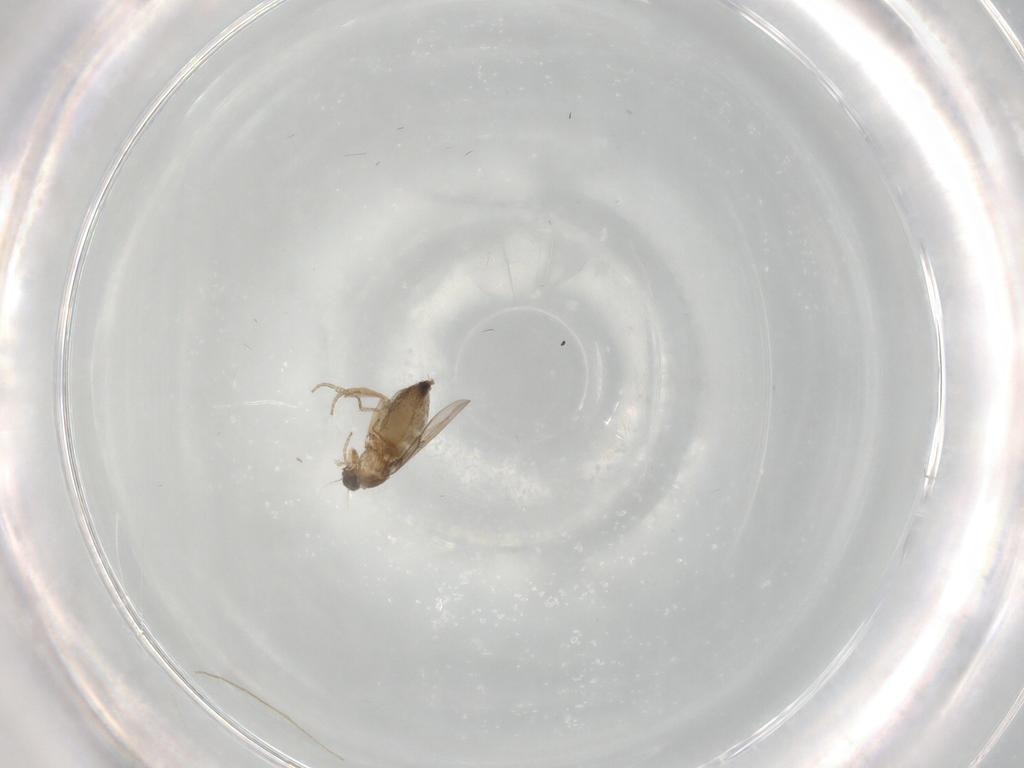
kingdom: Animalia
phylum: Arthropoda
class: Insecta
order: Diptera
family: Phoridae
